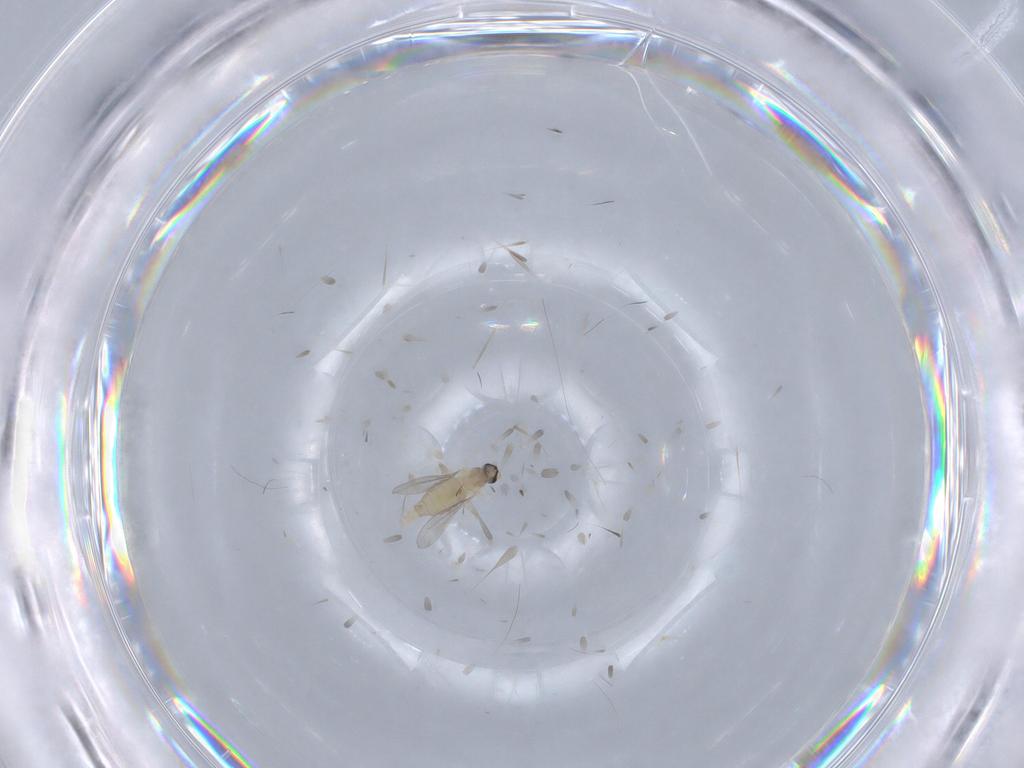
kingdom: Animalia
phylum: Arthropoda
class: Insecta
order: Diptera
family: Cecidomyiidae
